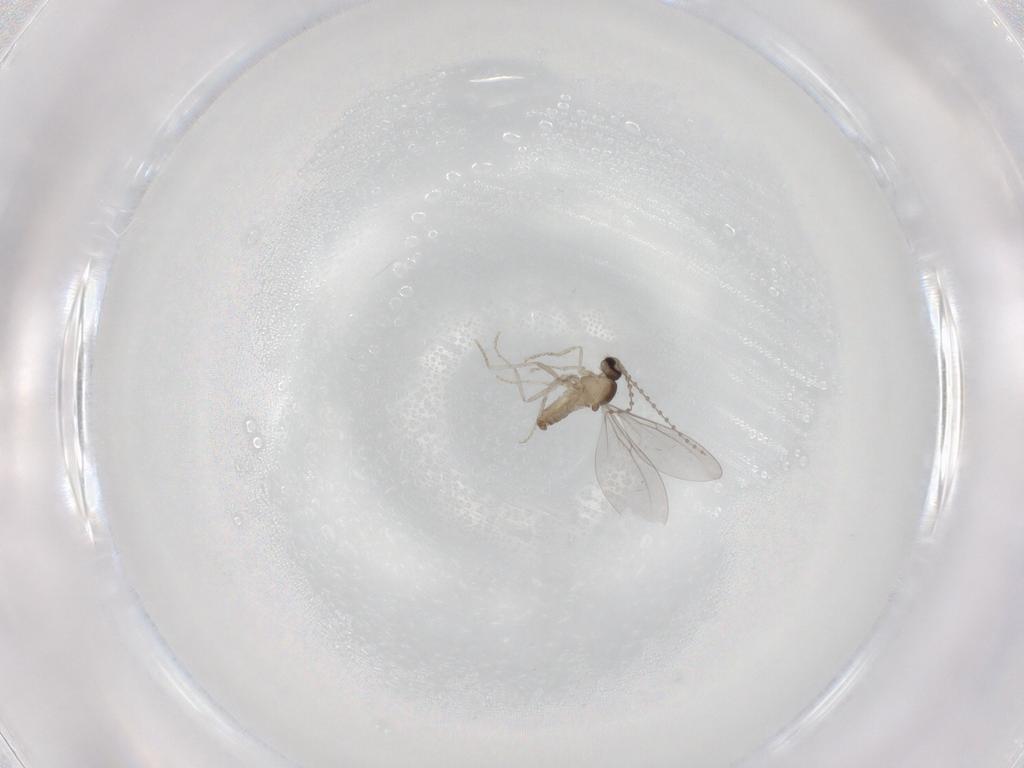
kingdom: Animalia
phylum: Arthropoda
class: Insecta
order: Diptera
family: Cecidomyiidae
